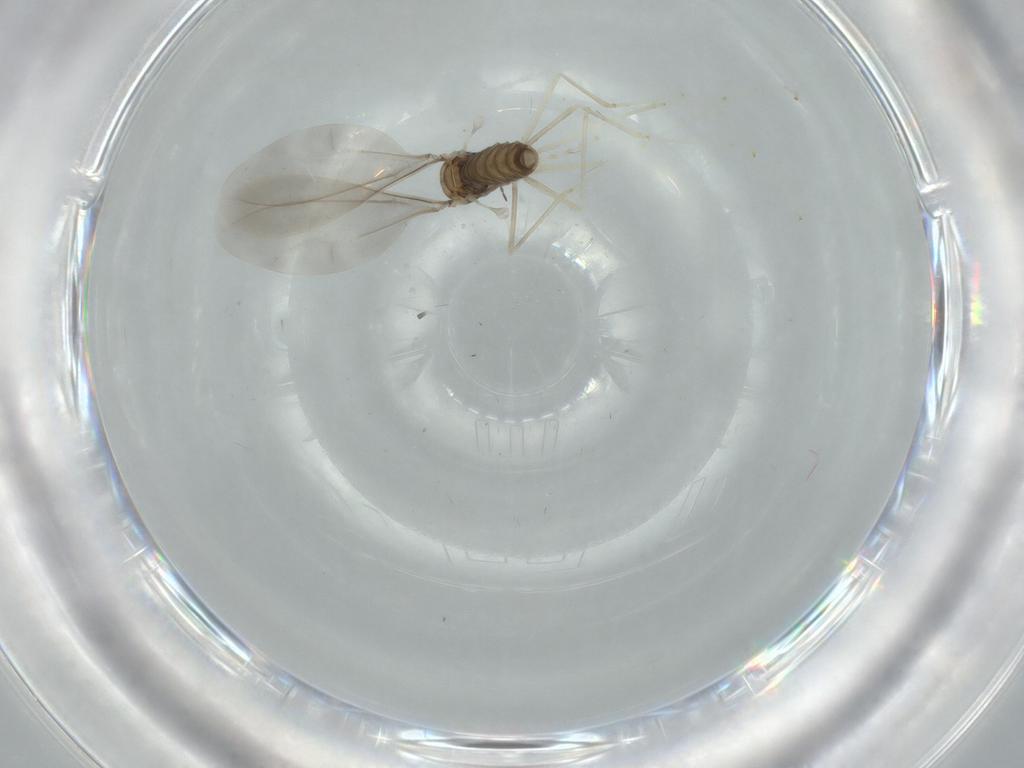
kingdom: Animalia
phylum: Arthropoda
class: Insecta
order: Diptera
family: Cecidomyiidae
